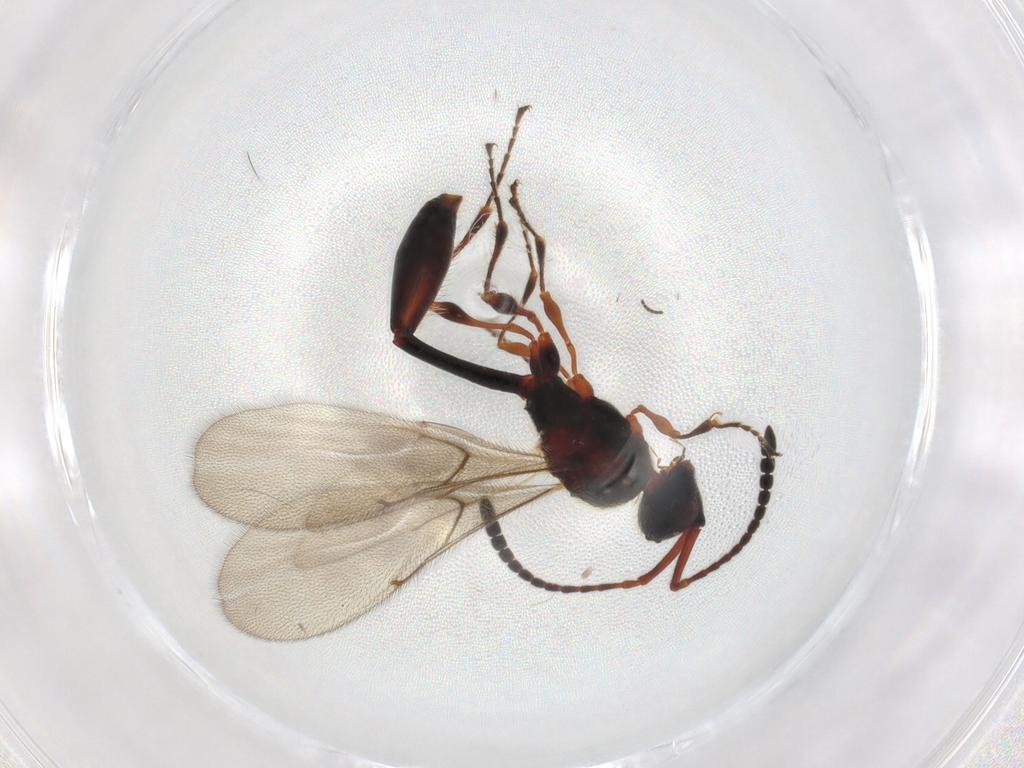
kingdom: Animalia
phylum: Arthropoda
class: Insecta
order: Hymenoptera
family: Diapriidae
